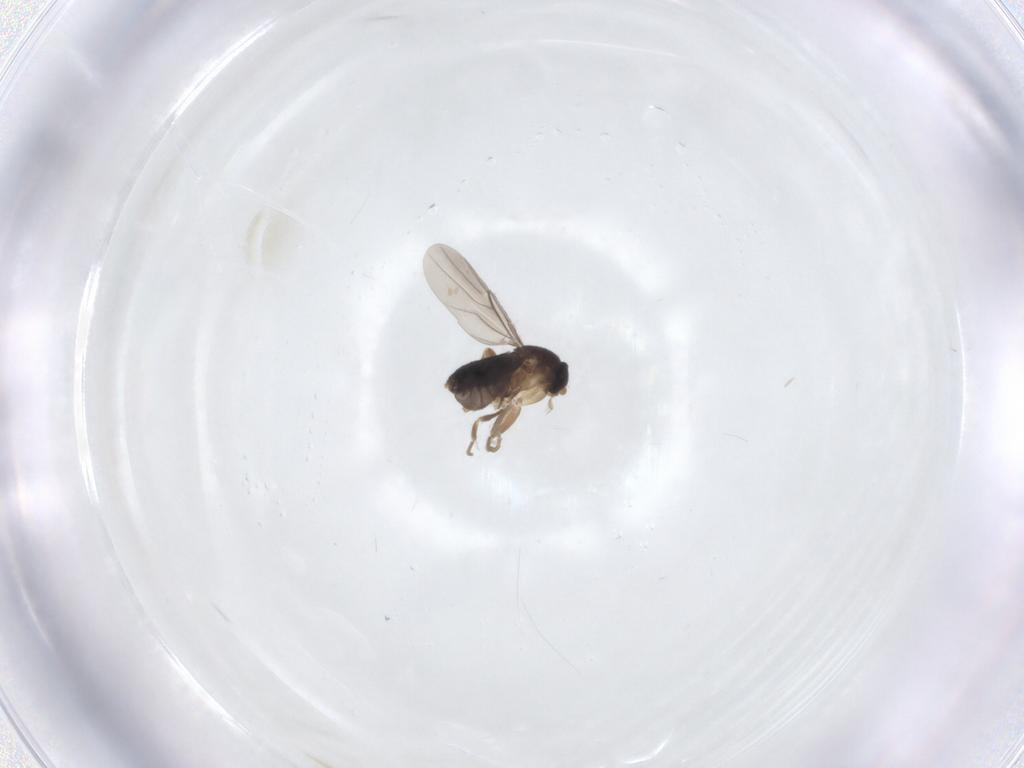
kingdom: Animalia
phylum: Arthropoda
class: Insecta
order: Diptera
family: Phoridae
